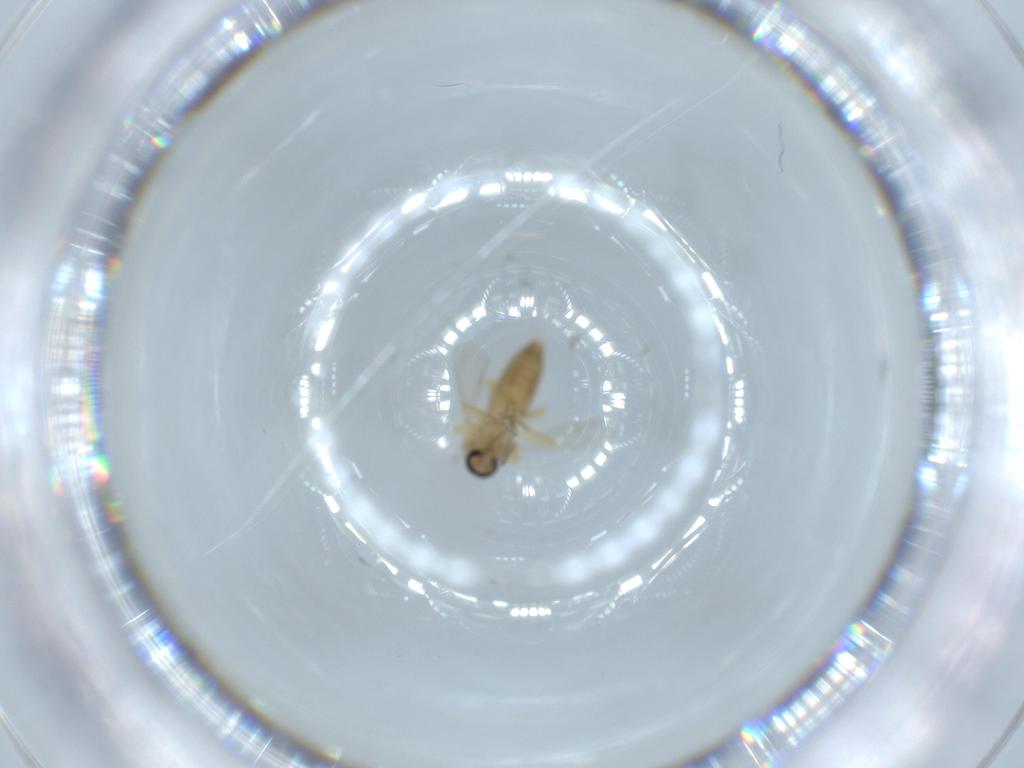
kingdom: Animalia
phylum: Arthropoda
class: Insecta
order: Diptera
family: Ceratopogonidae
